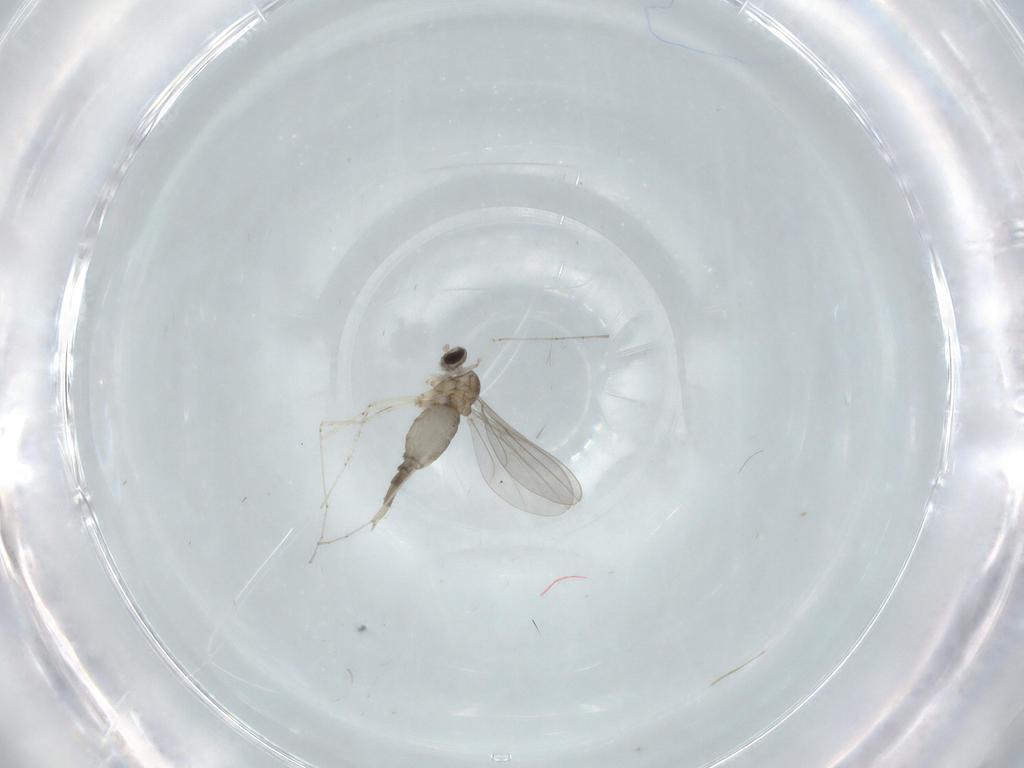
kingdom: Animalia
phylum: Arthropoda
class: Insecta
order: Diptera
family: Cecidomyiidae
